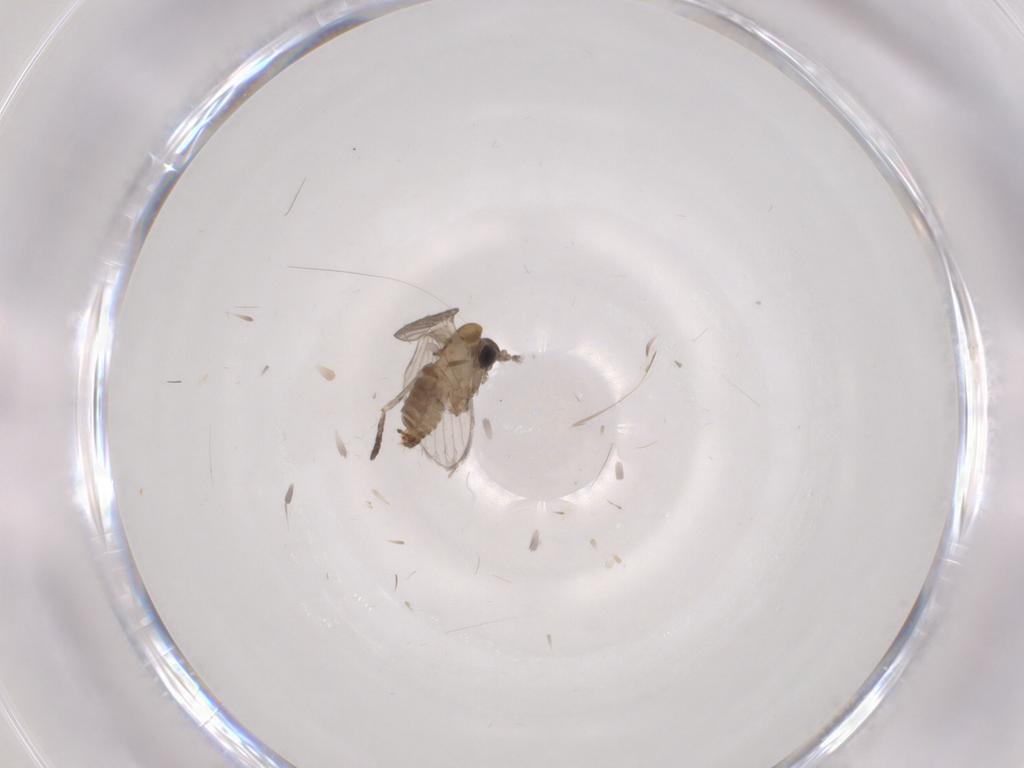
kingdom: Animalia
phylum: Arthropoda
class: Insecta
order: Diptera
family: Psychodidae
